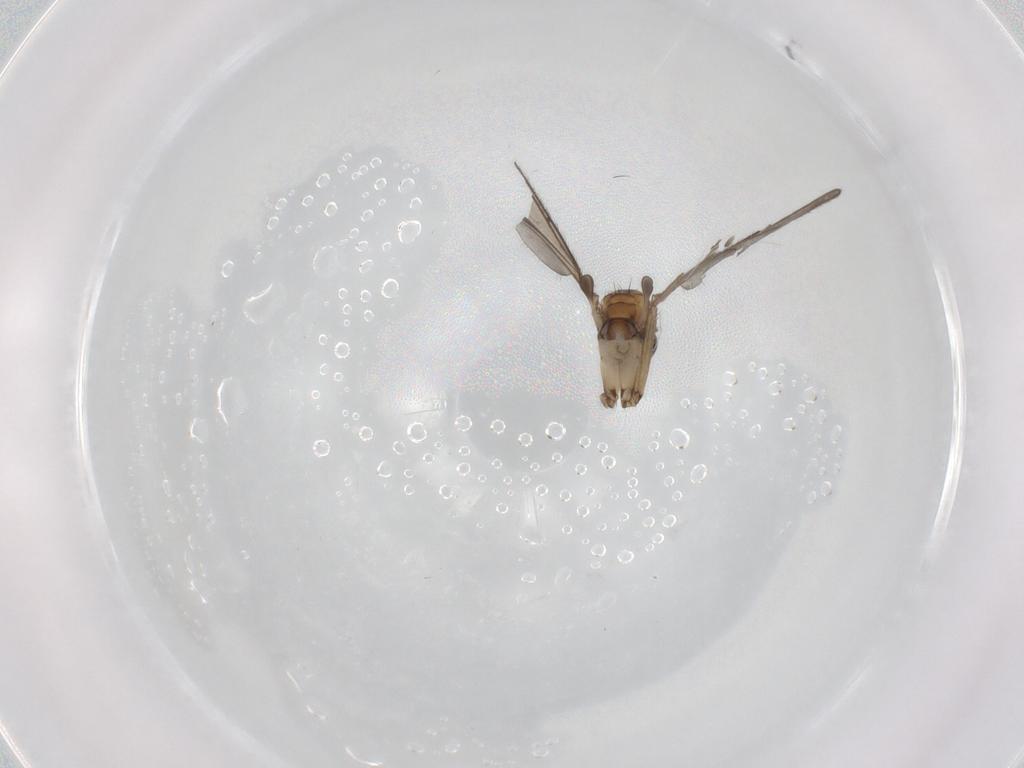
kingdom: Animalia
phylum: Arthropoda
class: Insecta
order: Diptera
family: Sciaridae
